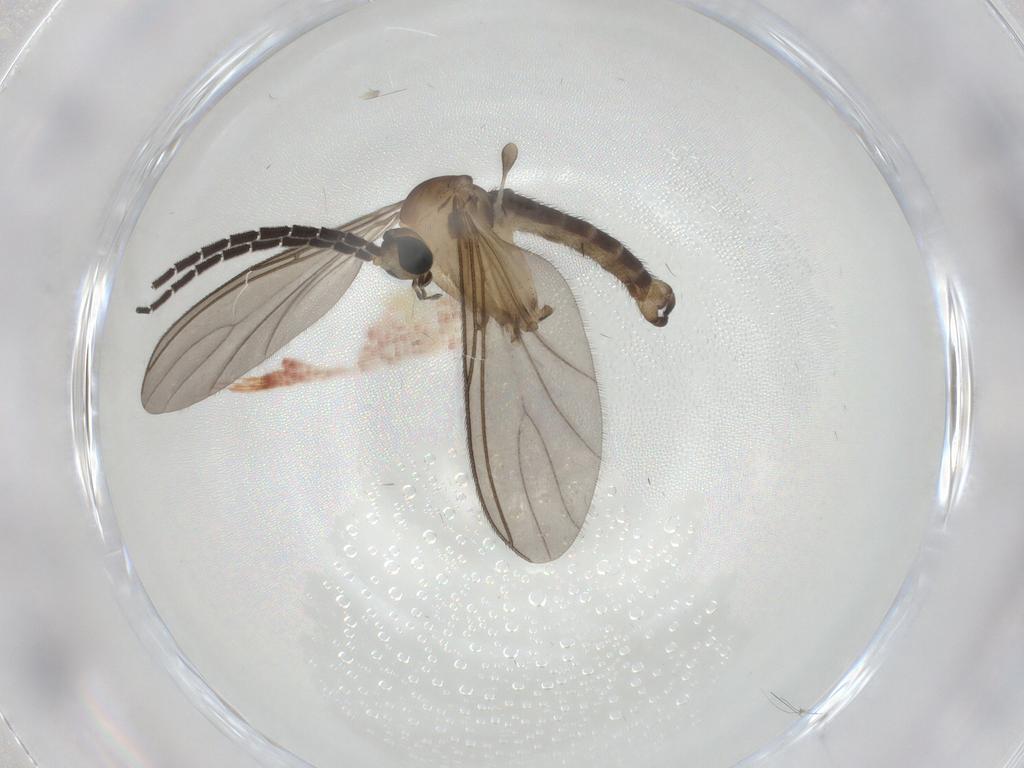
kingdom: Animalia
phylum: Arthropoda
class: Insecta
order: Diptera
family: Sciaridae
